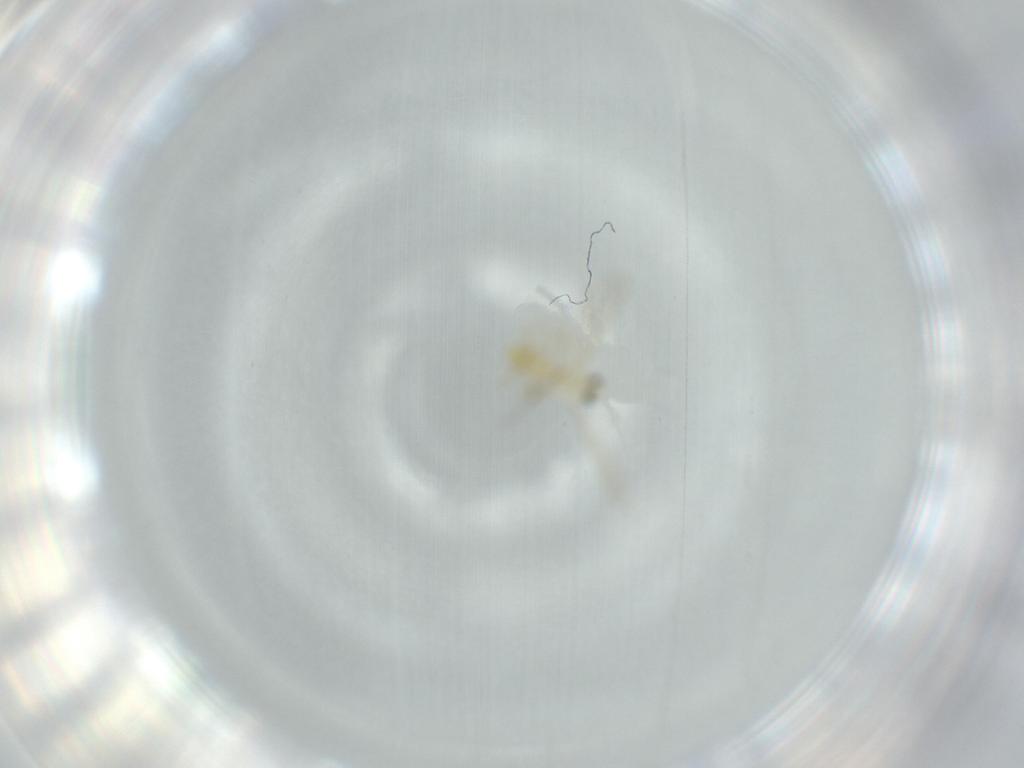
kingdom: Animalia
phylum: Arthropoda
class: Insecta
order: Diptera
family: Chironomidae
